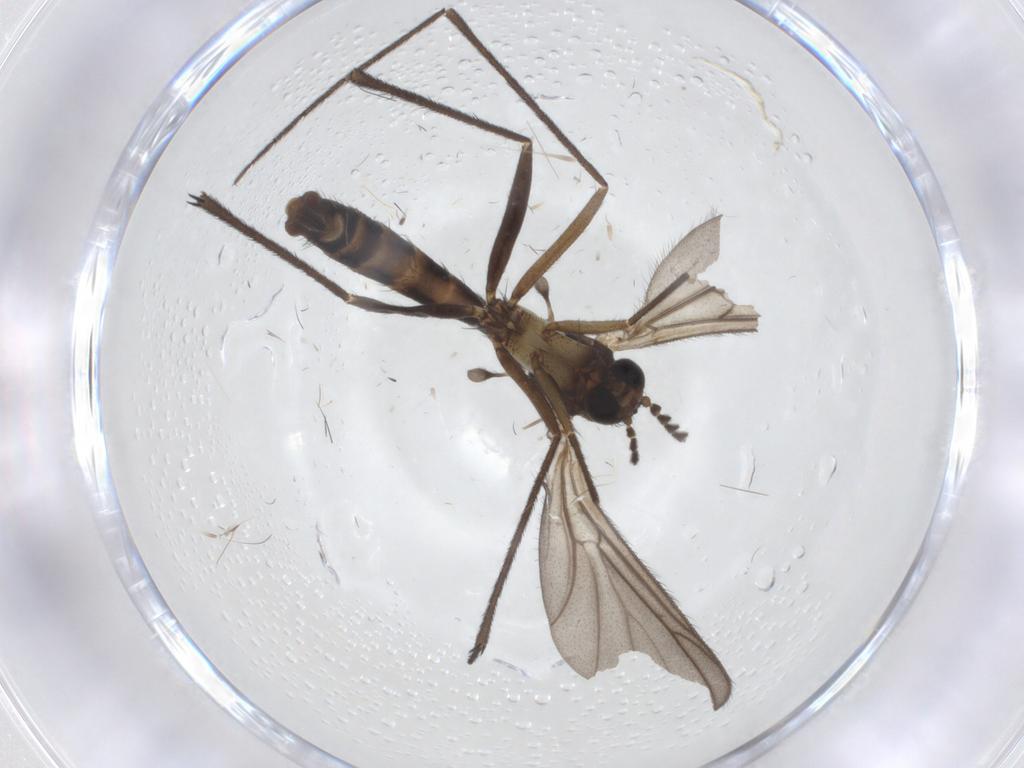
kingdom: Animalia
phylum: Arthropoda
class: Insecta
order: Diptera
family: Ditomyiidae
